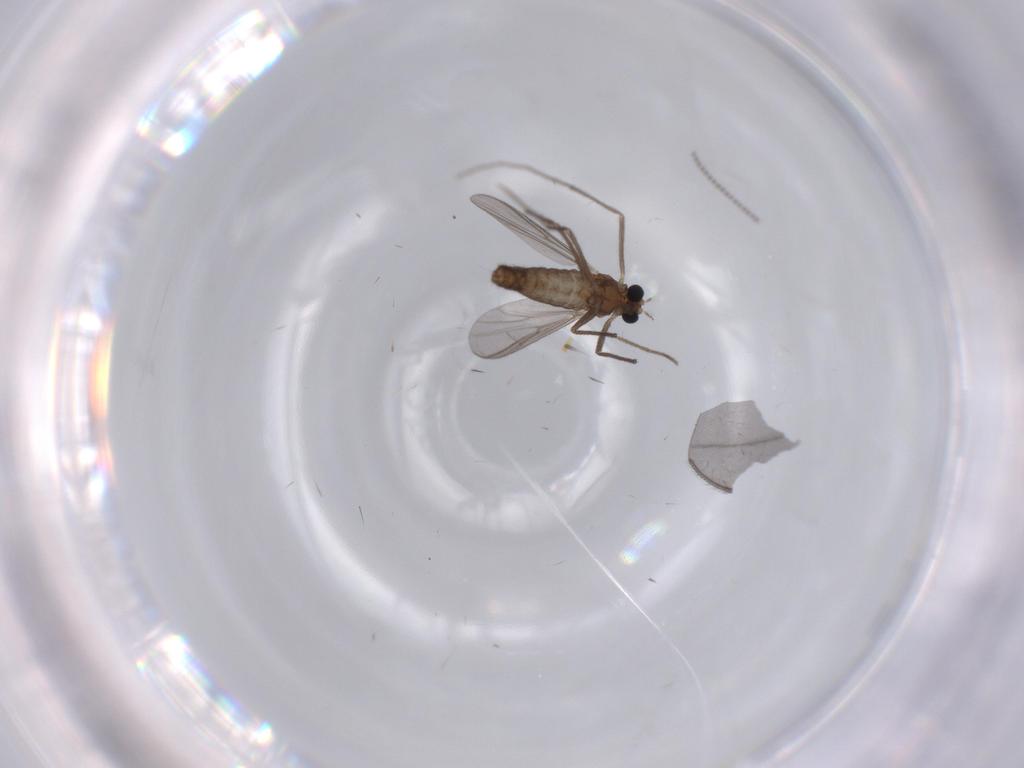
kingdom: Animalia
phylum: Arthropoda
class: Insecta
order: Diptera
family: Chironomidae
